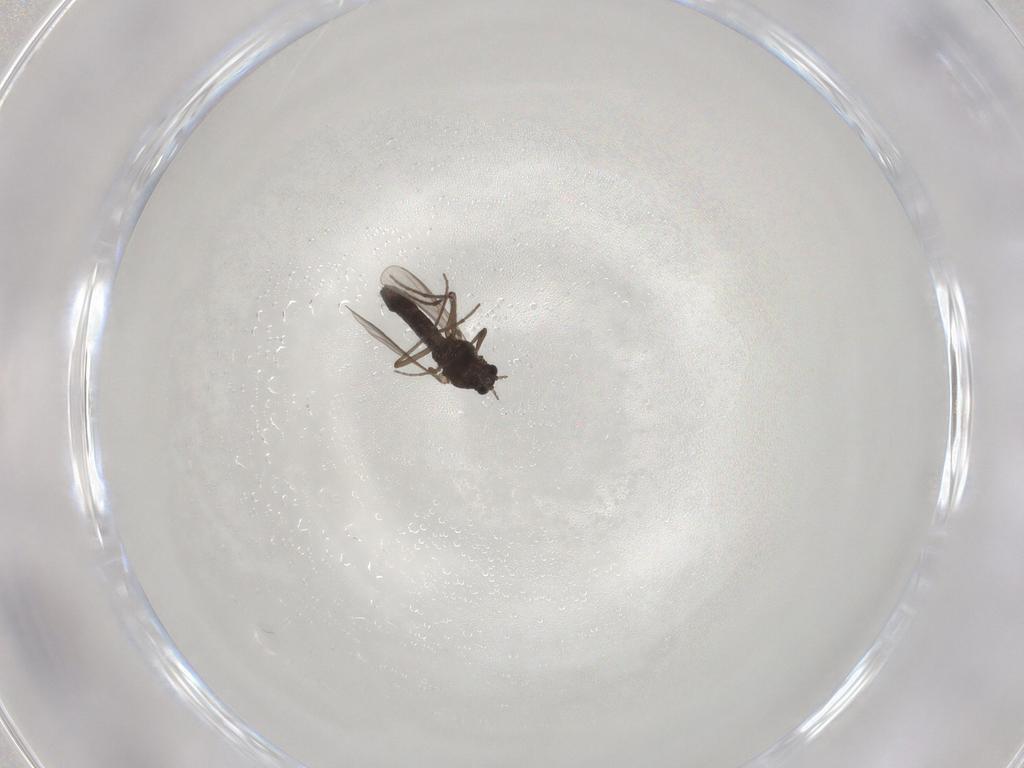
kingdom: Animalia
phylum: Arthropoda
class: Insecta
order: Diptera
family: Chironomidae
